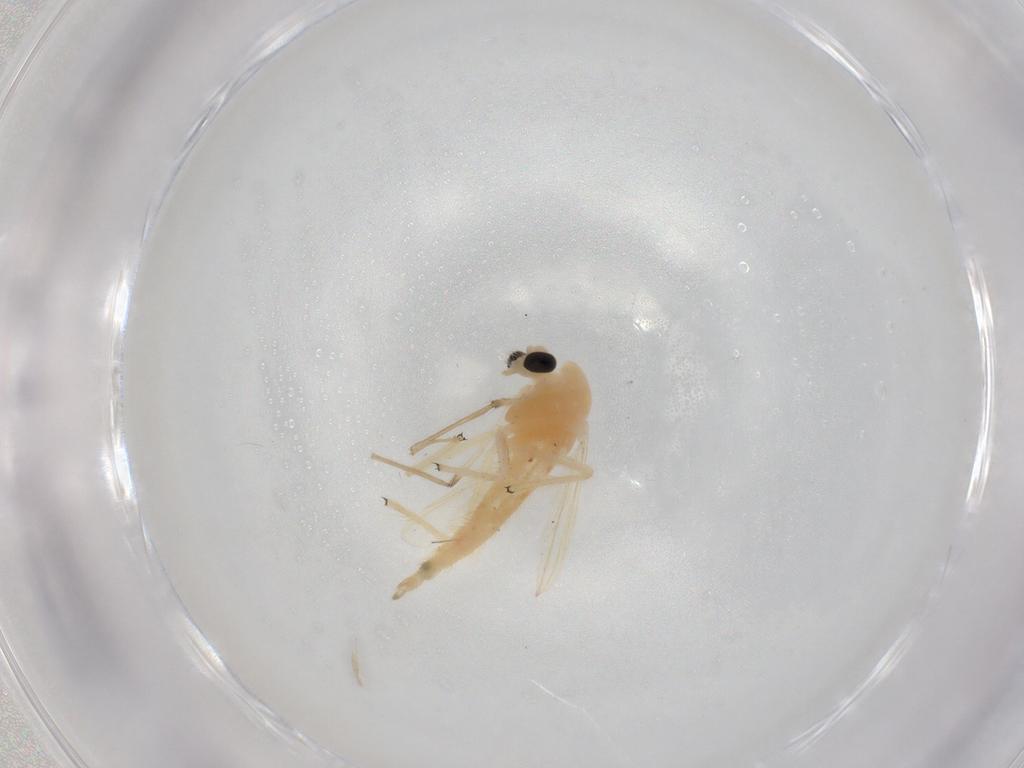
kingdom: Animalia
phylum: Arthropoda
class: Insecta
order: Diptera
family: Chironomidae
